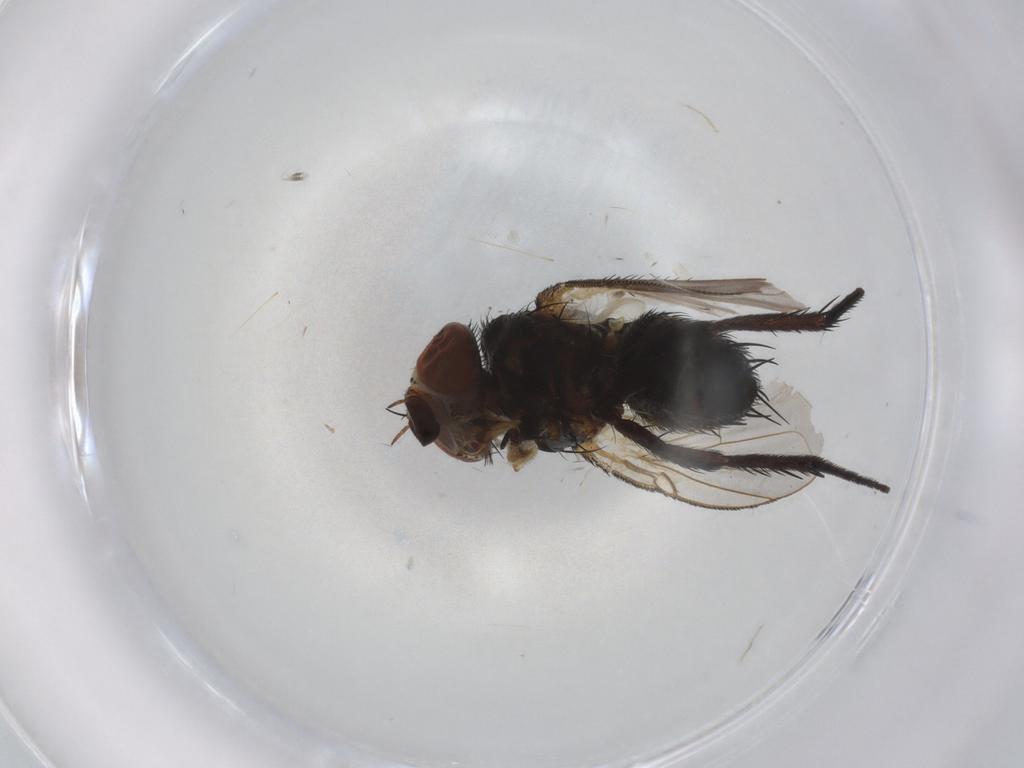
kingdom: Animalia
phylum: Arthropoda
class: Insecta
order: Diptera
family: Tachinidae
